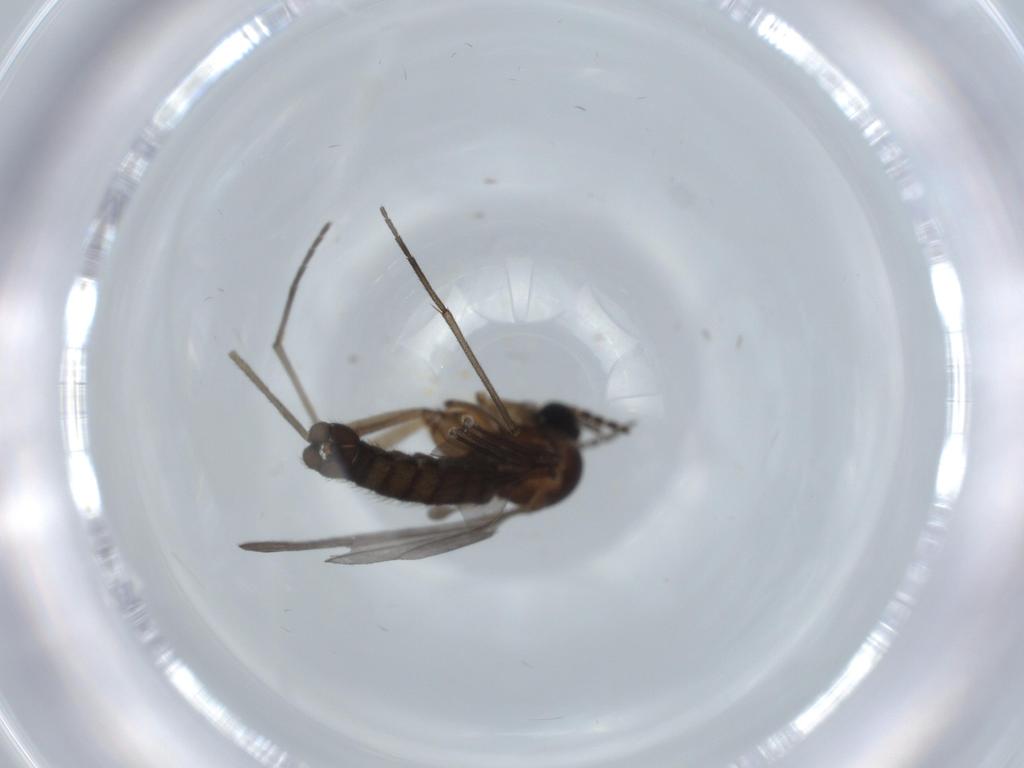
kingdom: Animalia
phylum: Arthropoda
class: Insecta
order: Diptera
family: Sciaridae
